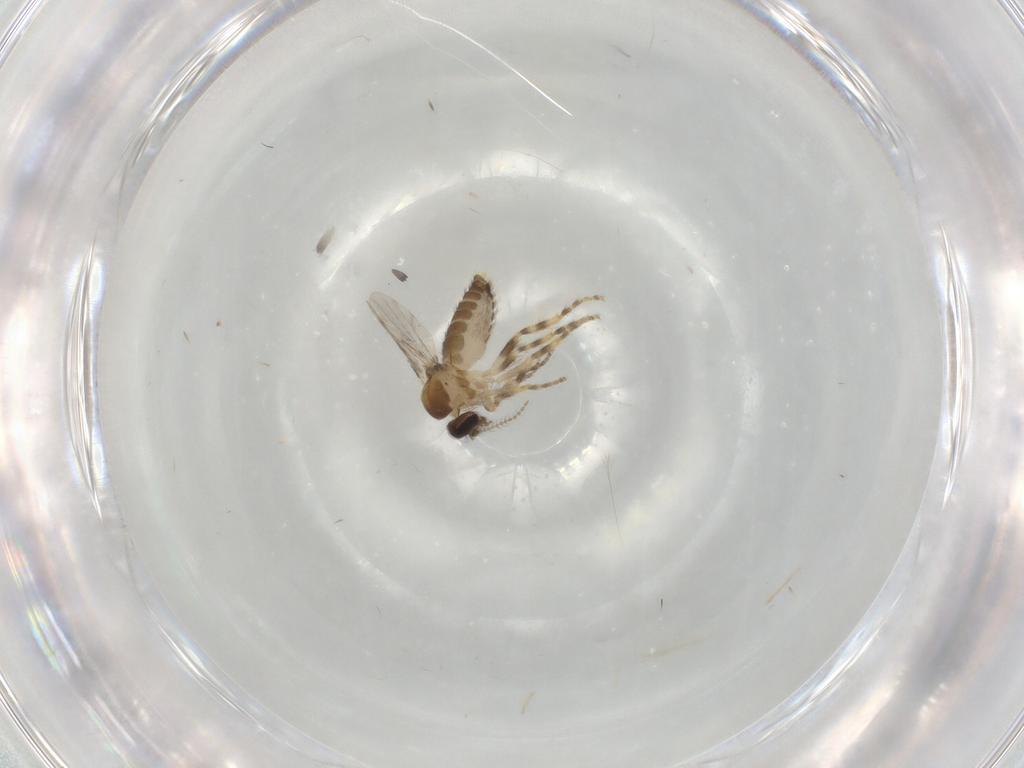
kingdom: Animalia
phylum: Arthropoda
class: Insecta
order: Diptera
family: Ceratopogonidae
